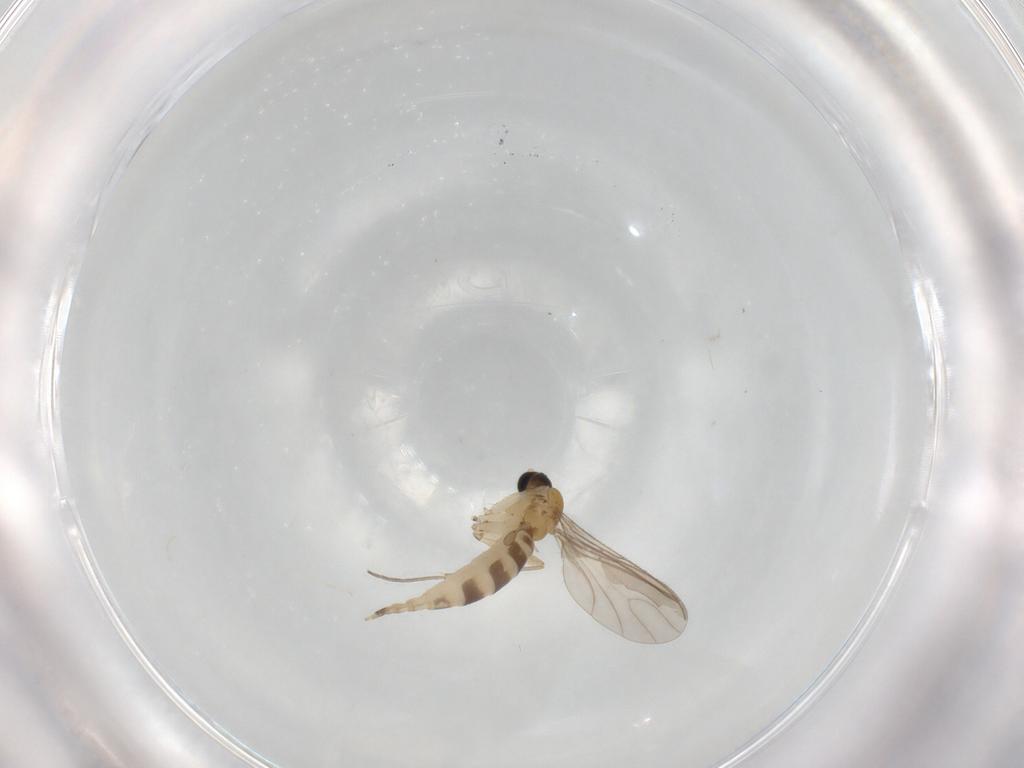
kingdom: Animalia
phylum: Arthropoda
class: Insecta
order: Diptera
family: Sciaridae
